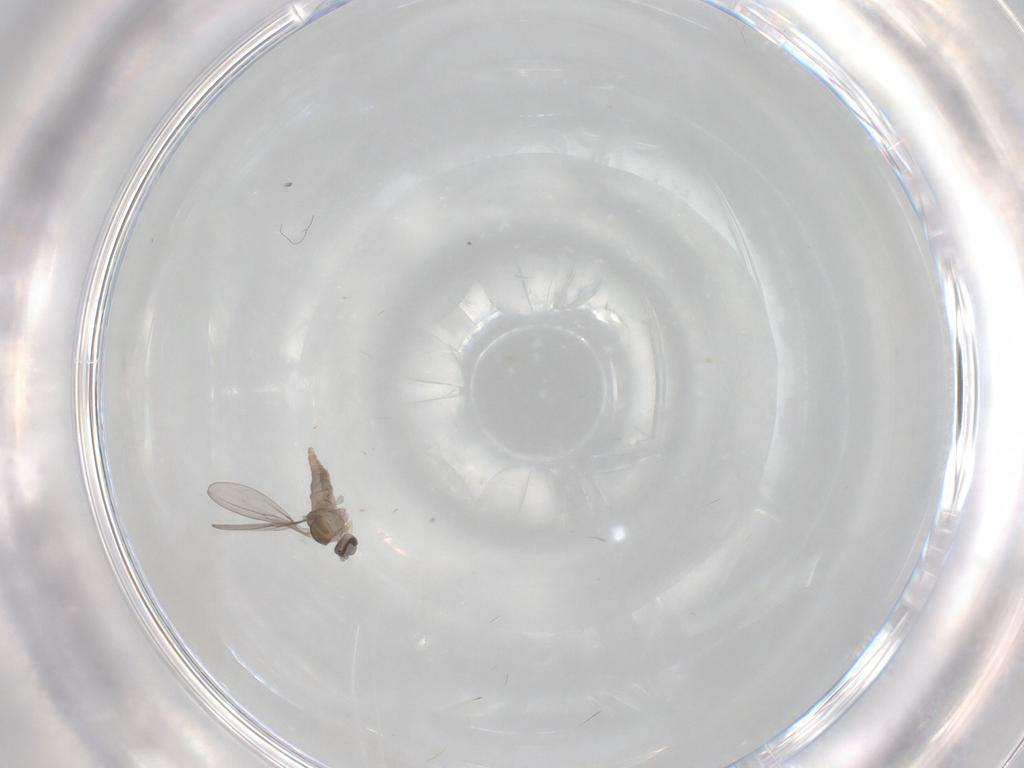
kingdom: Animalia
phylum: Arthropoda
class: Insecta
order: Diptera
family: Cecidomyiidae
